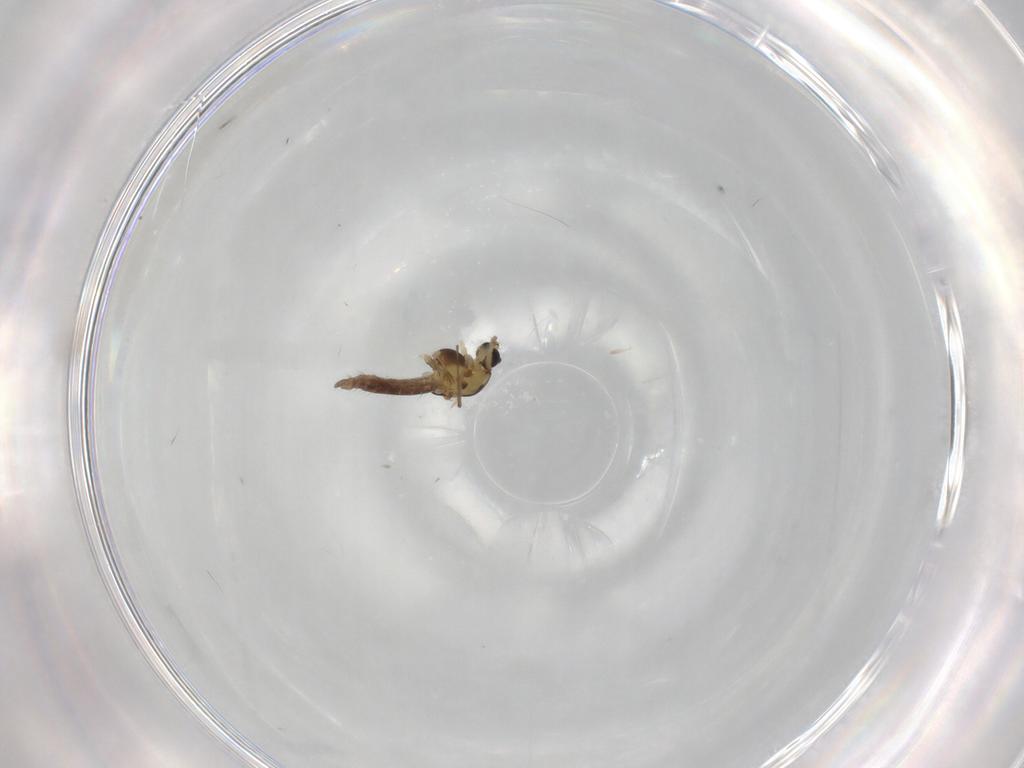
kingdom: Animalia
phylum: Arthropoda
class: Insecta
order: Diptera
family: Chironomidae
